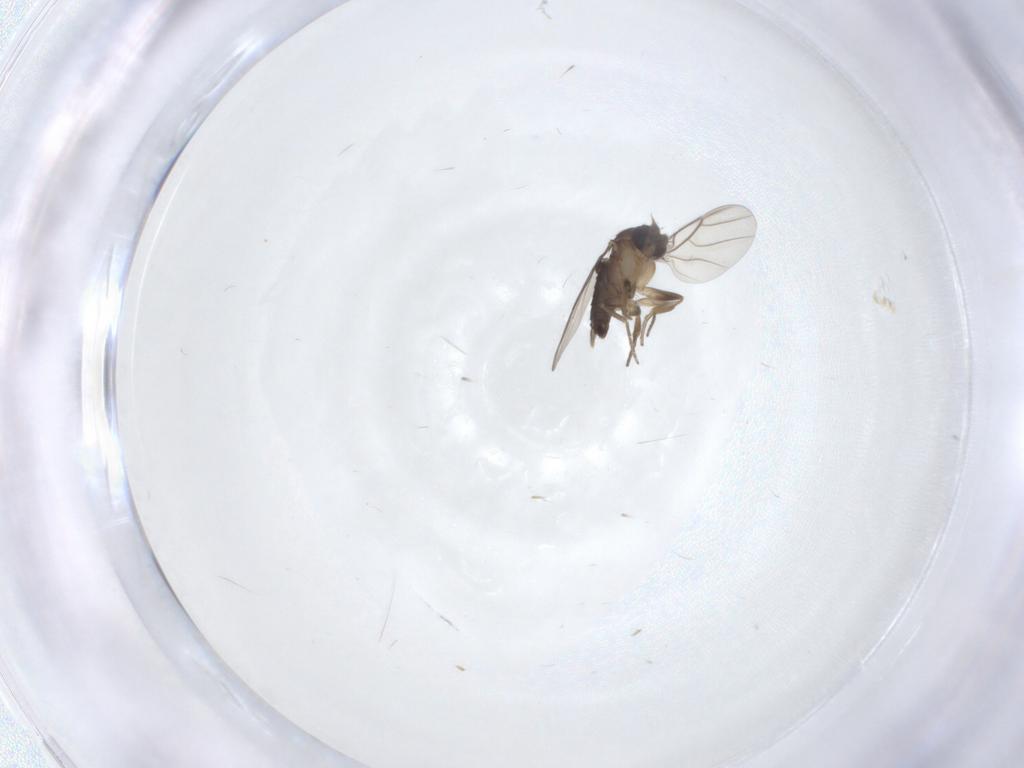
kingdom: Animalia
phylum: Arthropoda
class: Insecta
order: Diptera
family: Phoridae
